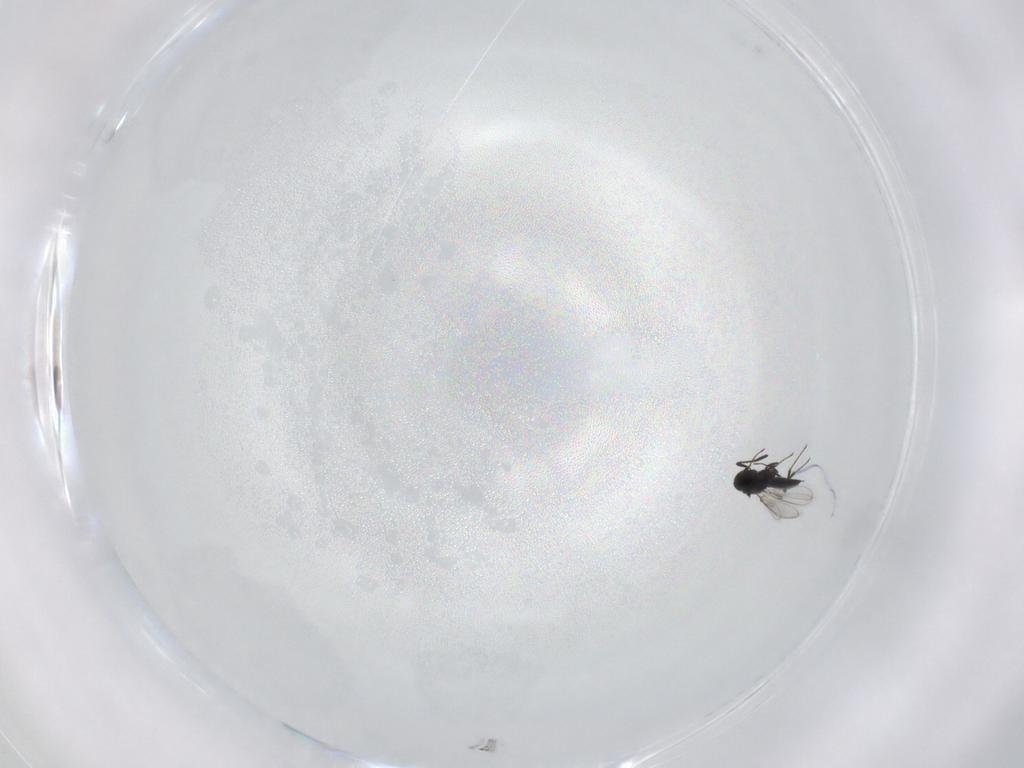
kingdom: Animalia
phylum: Arthropoda
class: Insecta
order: Hymenoptera
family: Scelionidae
